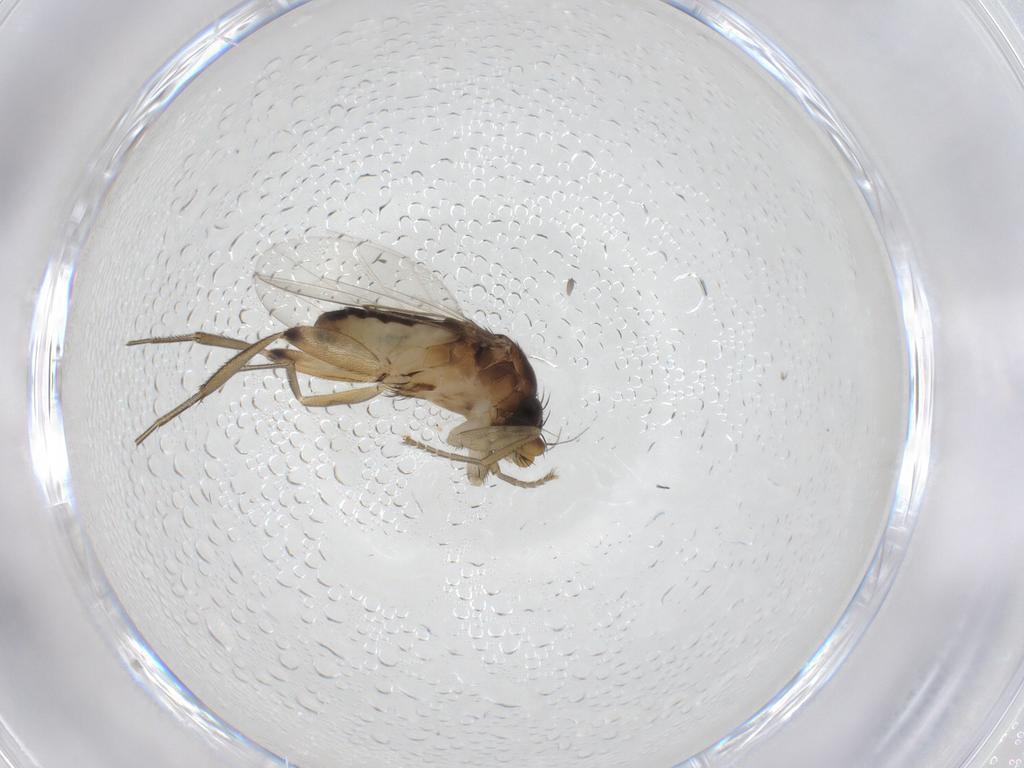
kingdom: Animalia
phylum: Arthropoda
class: Insecta
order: Diptera
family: Phoridae
